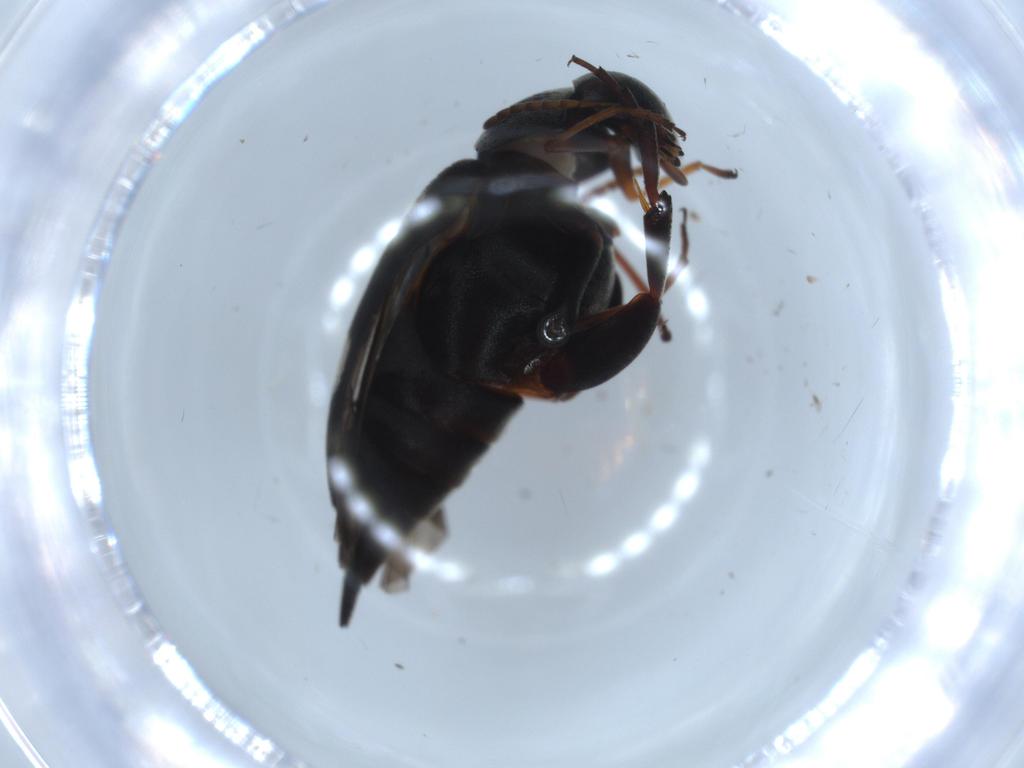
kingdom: Animalia
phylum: Arthropoda
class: Insecta
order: Coleoptera
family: Mordellidae
